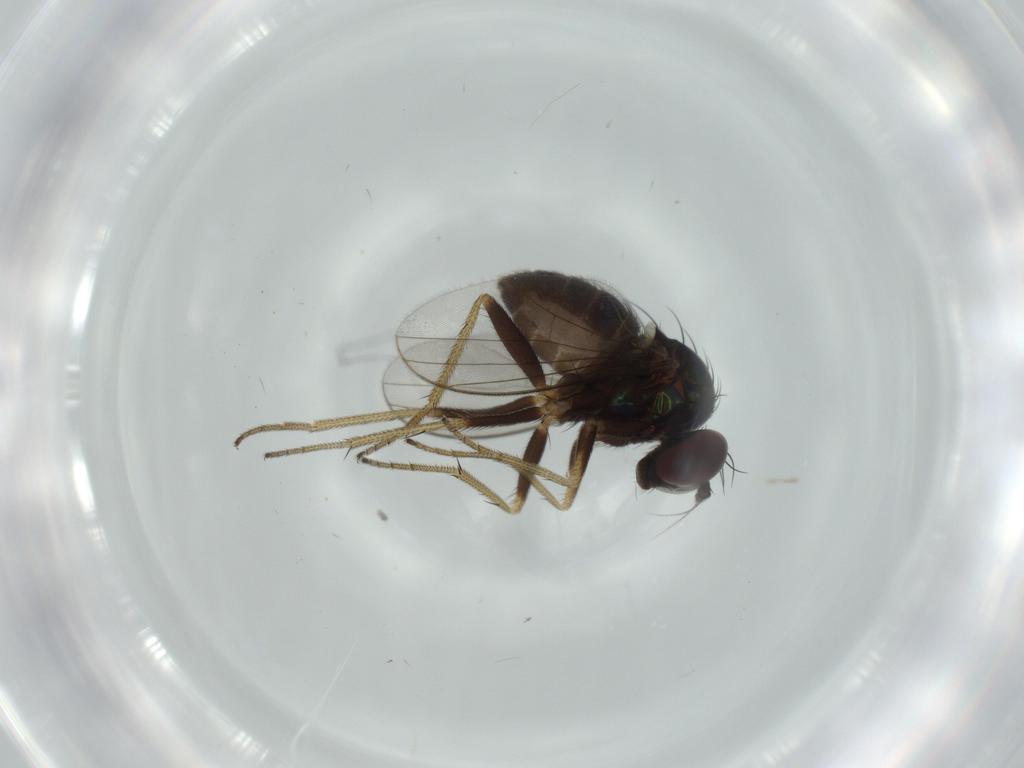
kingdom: Animalia
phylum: Arthropoda
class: Insecta
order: Diptera
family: Dolichopodidae
